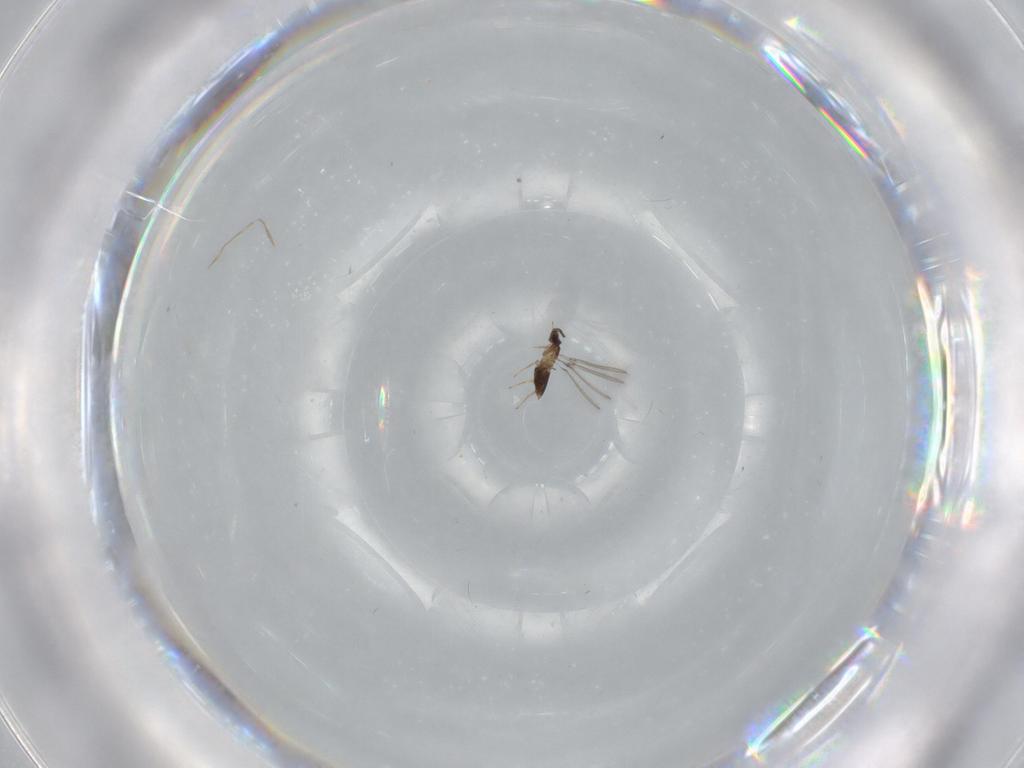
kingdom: Animalia
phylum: Arthropoda
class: Insecta
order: Hymenoptera
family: Mymaridae
